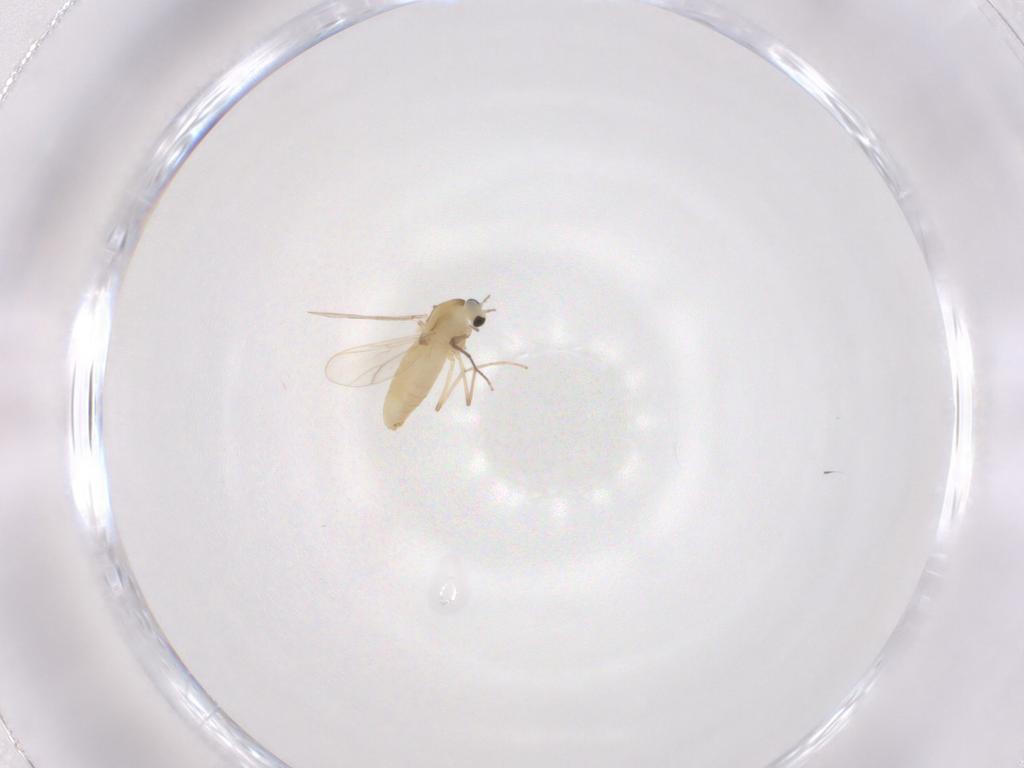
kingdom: Animalia
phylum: Arthropoda
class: Insecta
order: Diptera
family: Chironomidae
